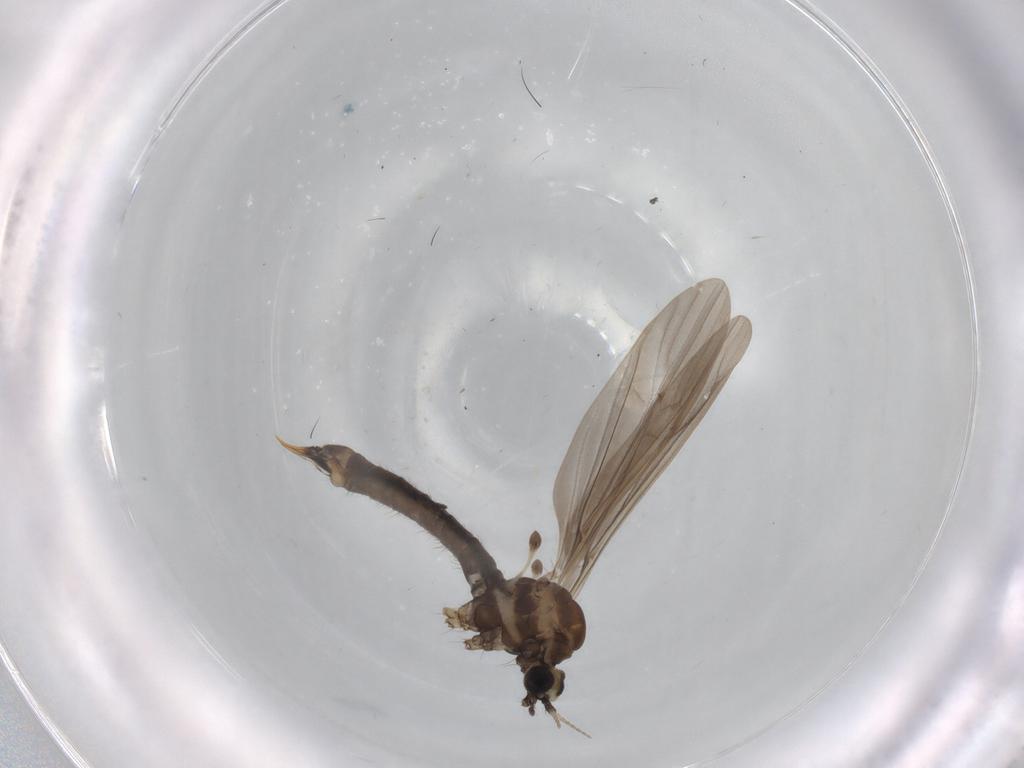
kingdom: Animalia
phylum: Arthropoda
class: Insecta
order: Diptera
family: Limoniidae
